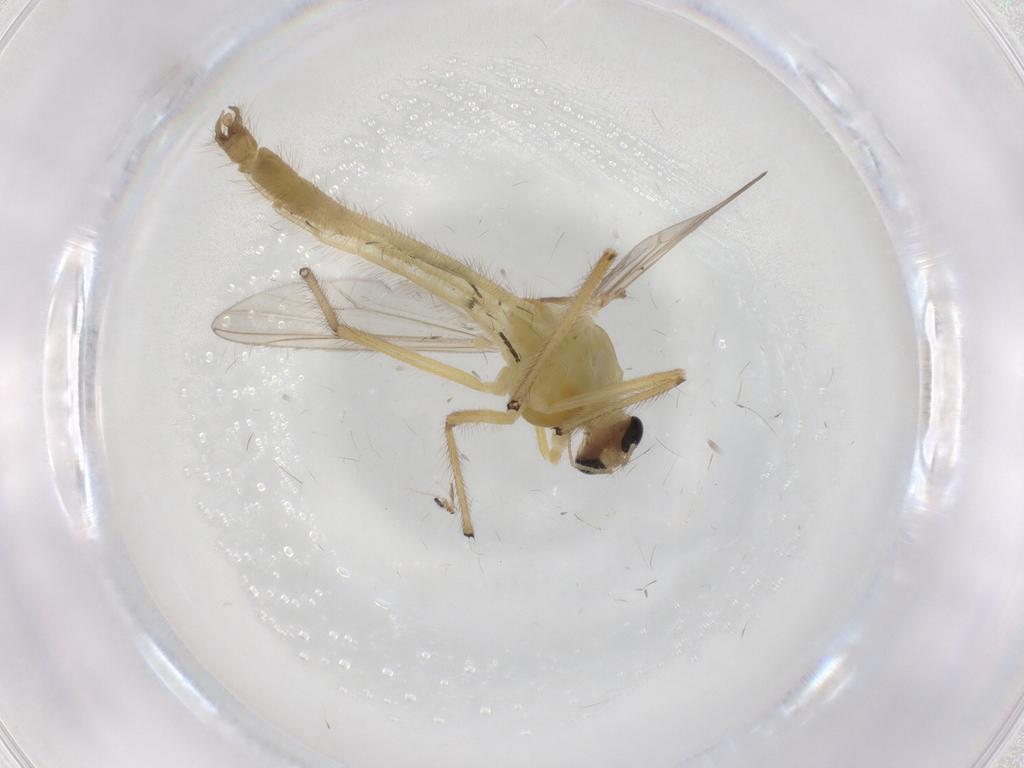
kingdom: Animalia
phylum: Arthropoda
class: Insecta
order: Diptera
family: Chironomidae
